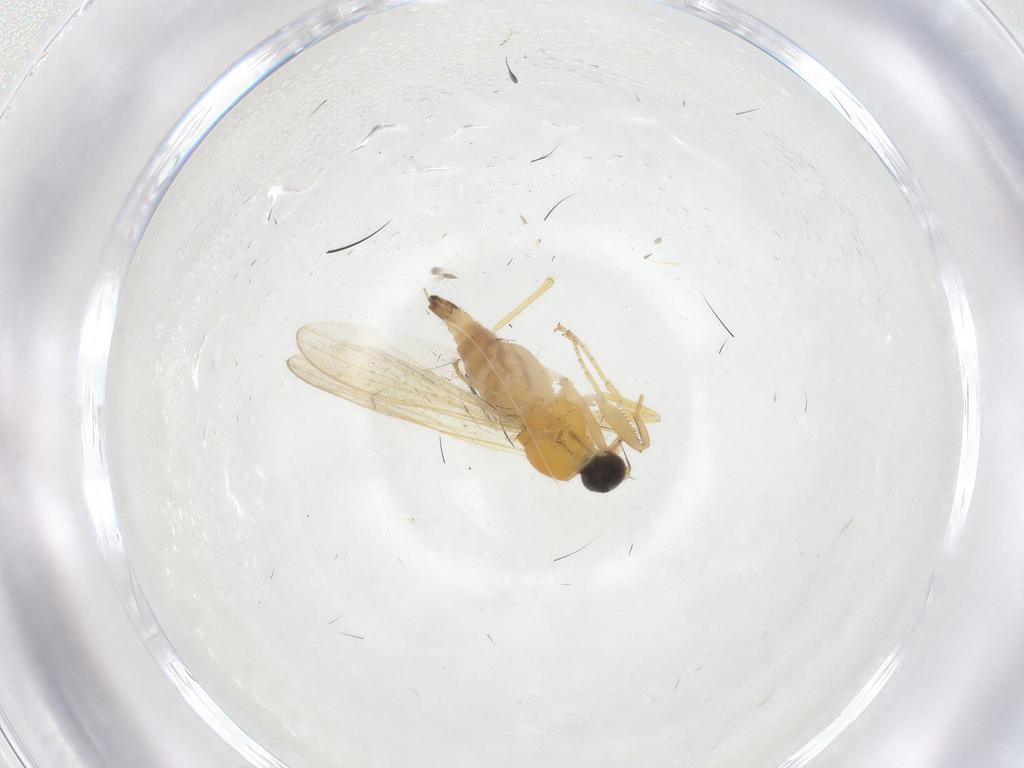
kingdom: Animalia
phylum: Arthropoda
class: Insecta
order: Diptera
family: Hybotidae
